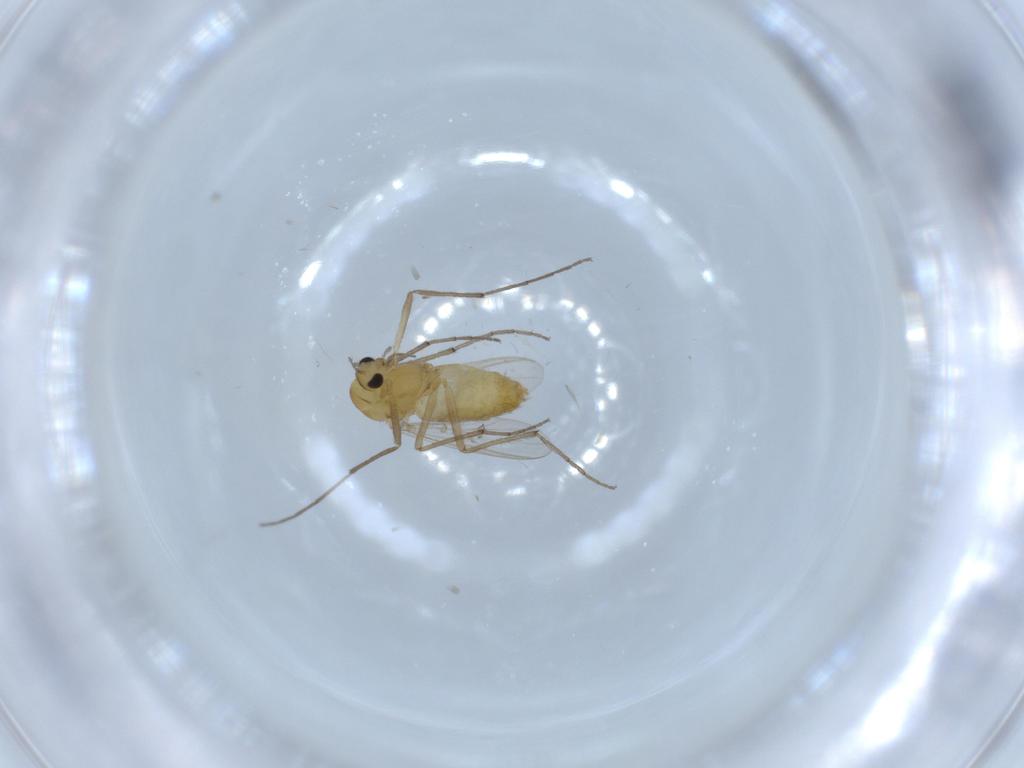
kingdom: Animalia
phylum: Arthropoda
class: Insecta
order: Diptera
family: Chironomidae
